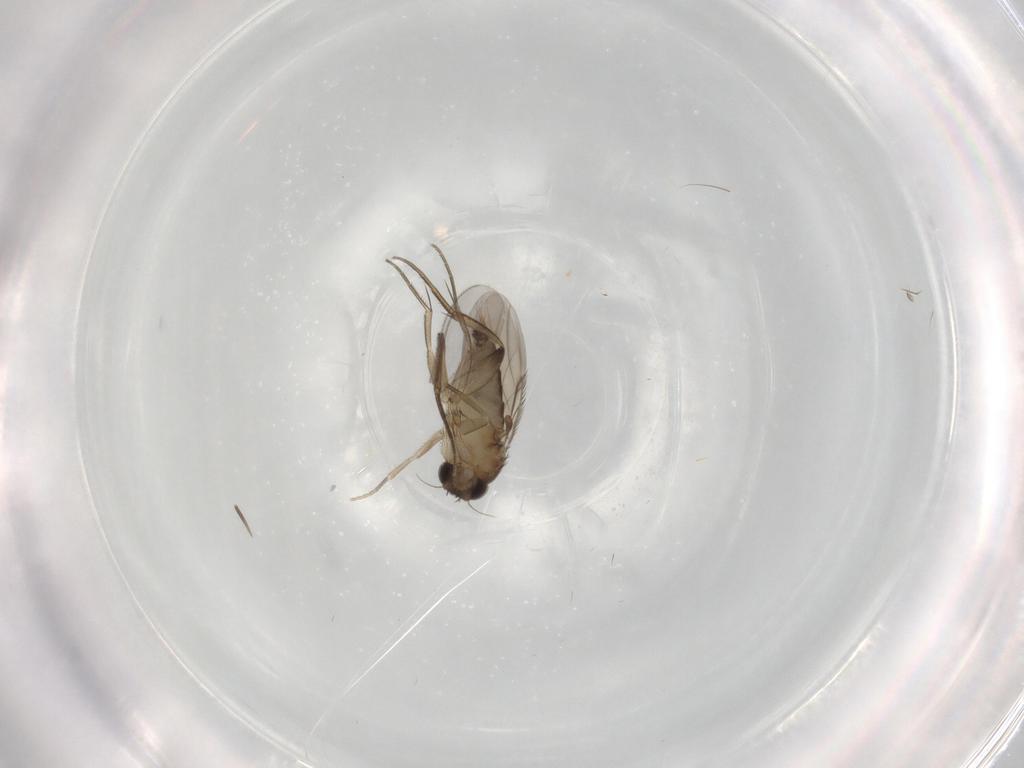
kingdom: Animalia
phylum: Arthropoda
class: Insecta
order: Diptera
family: Phoridae
